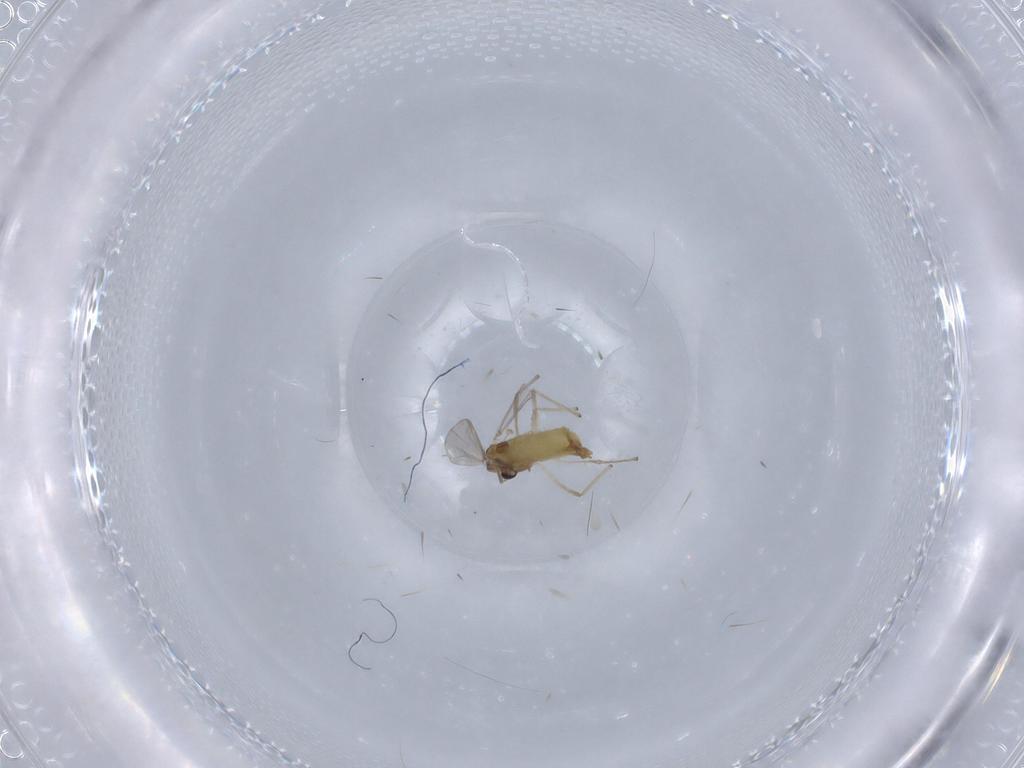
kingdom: Animalia
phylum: Arthropoda
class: Insecta
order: Diptera
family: Chironomidae
